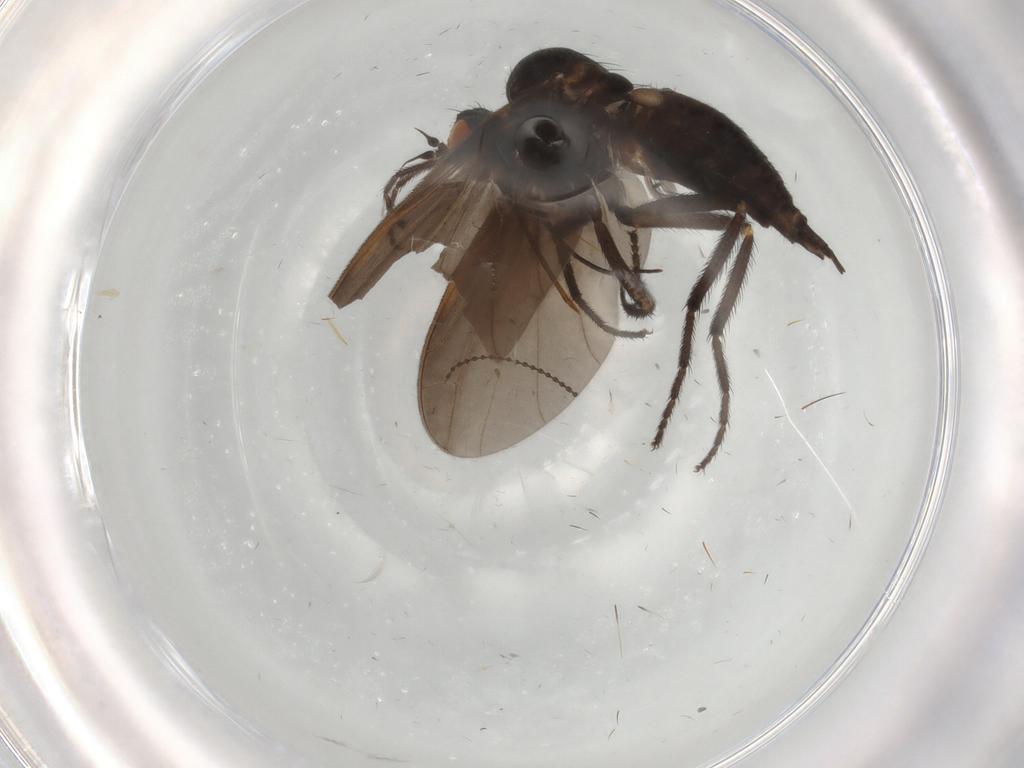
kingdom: Animalia
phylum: Arthropoda
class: Insecta
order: Diptera
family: Empididae
